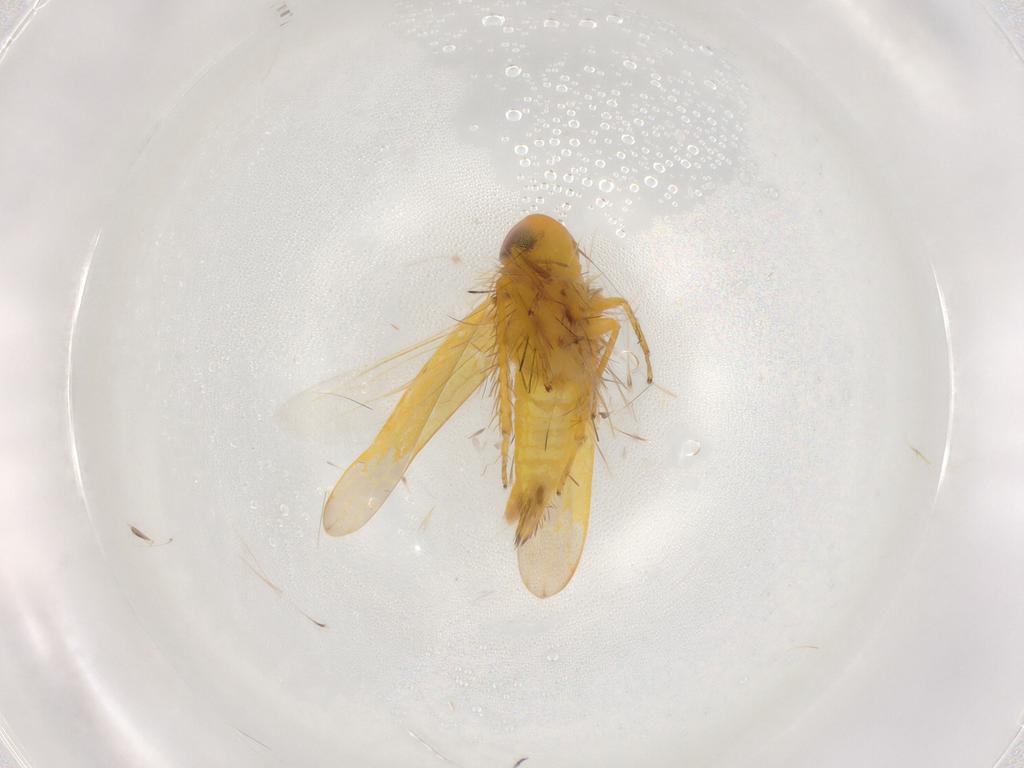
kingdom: Animalia
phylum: Arthropoda
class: Insecta
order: Hemiptera
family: Cicadellidae
